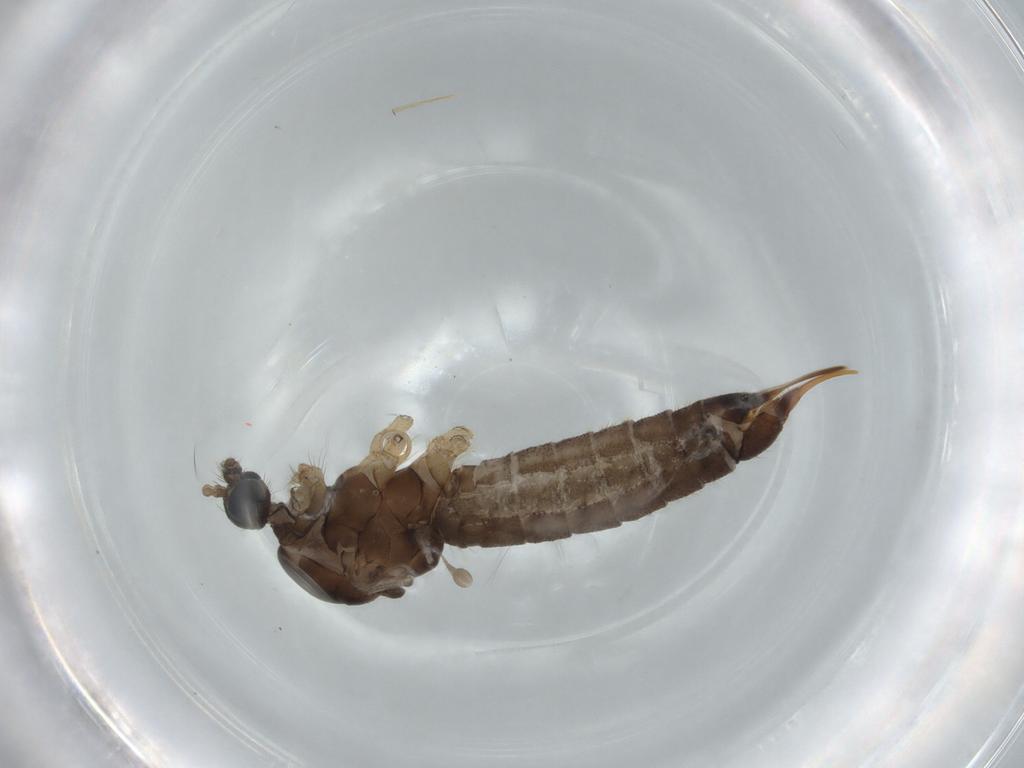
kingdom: Animalia
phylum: Arthropoda
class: Insecta
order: Diptera
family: Limoniidae
